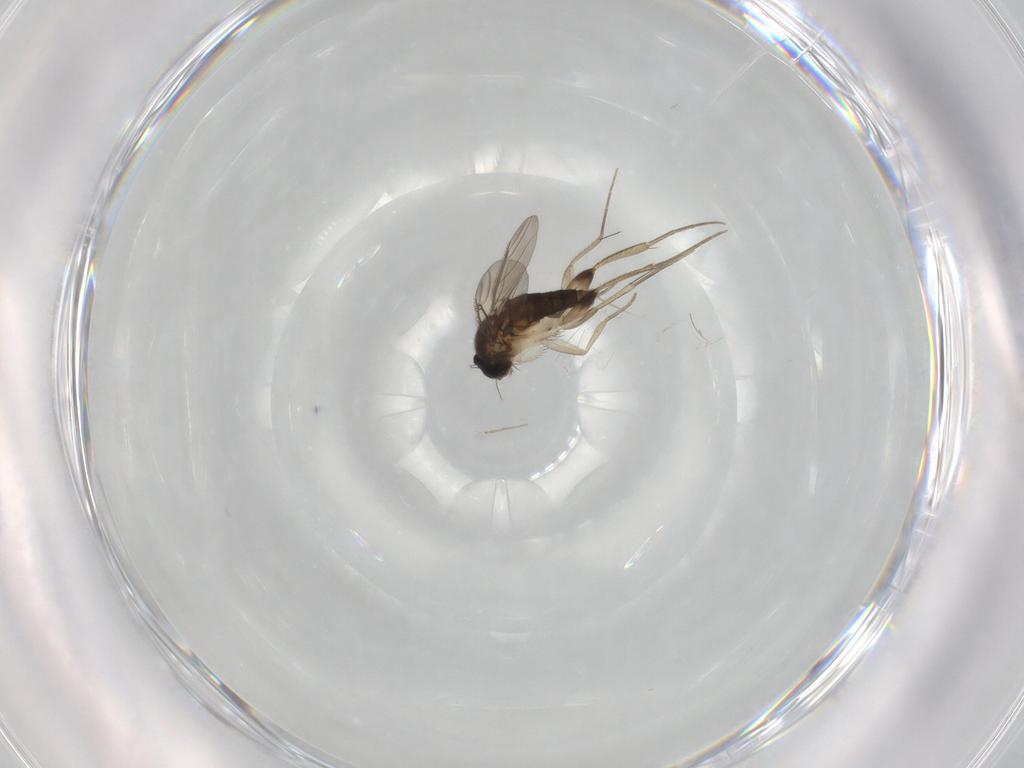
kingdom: Animalia
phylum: Arthropoda
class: Insecta
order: Diptera
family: Phoridae
